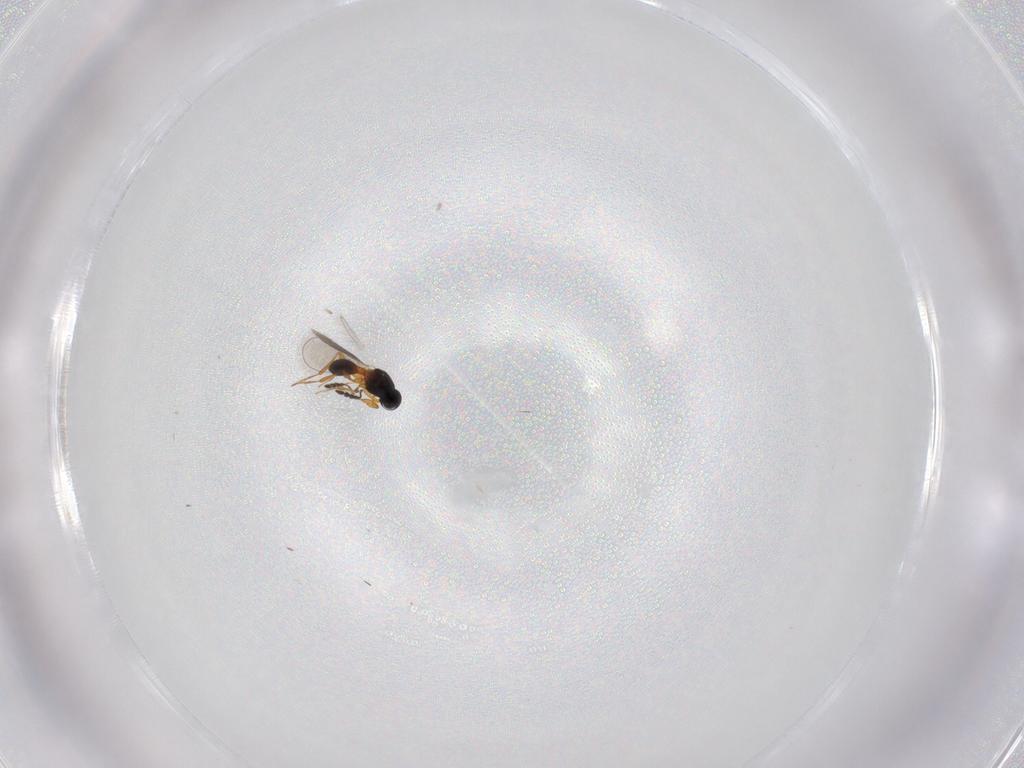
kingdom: Animalia
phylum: Arthropoda
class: Insecta
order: Hymenoptera
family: Platygastridae
